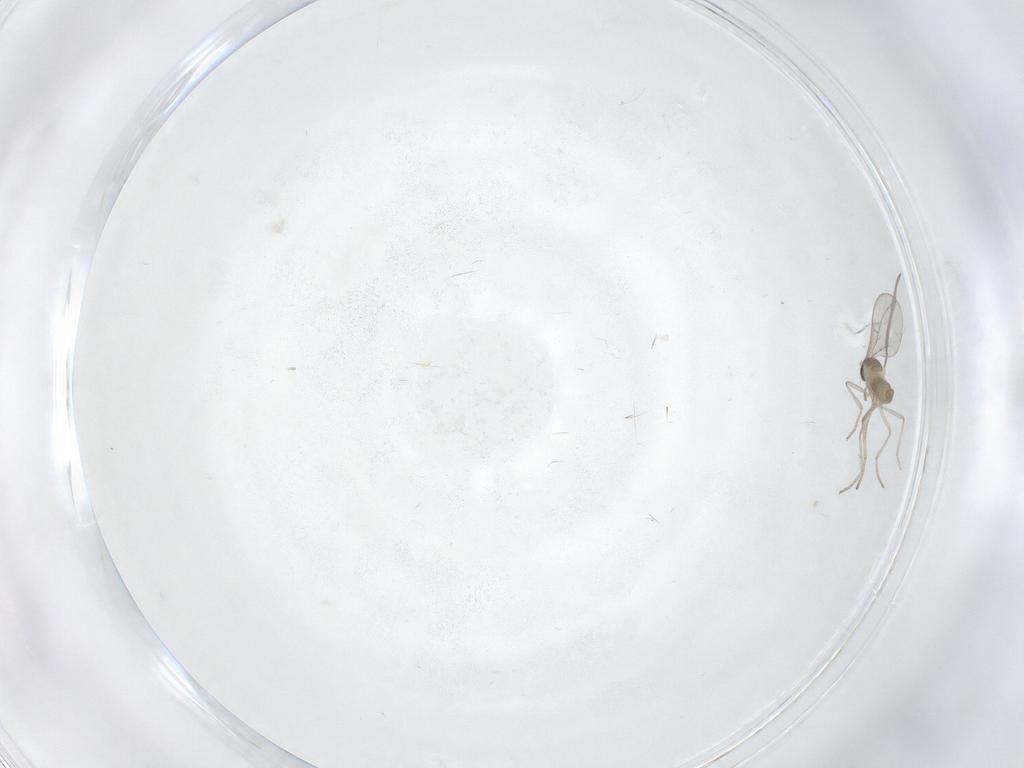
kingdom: Animalia
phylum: Arthropoda
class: Insecta
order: Diptera
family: Cecidomyiidae
